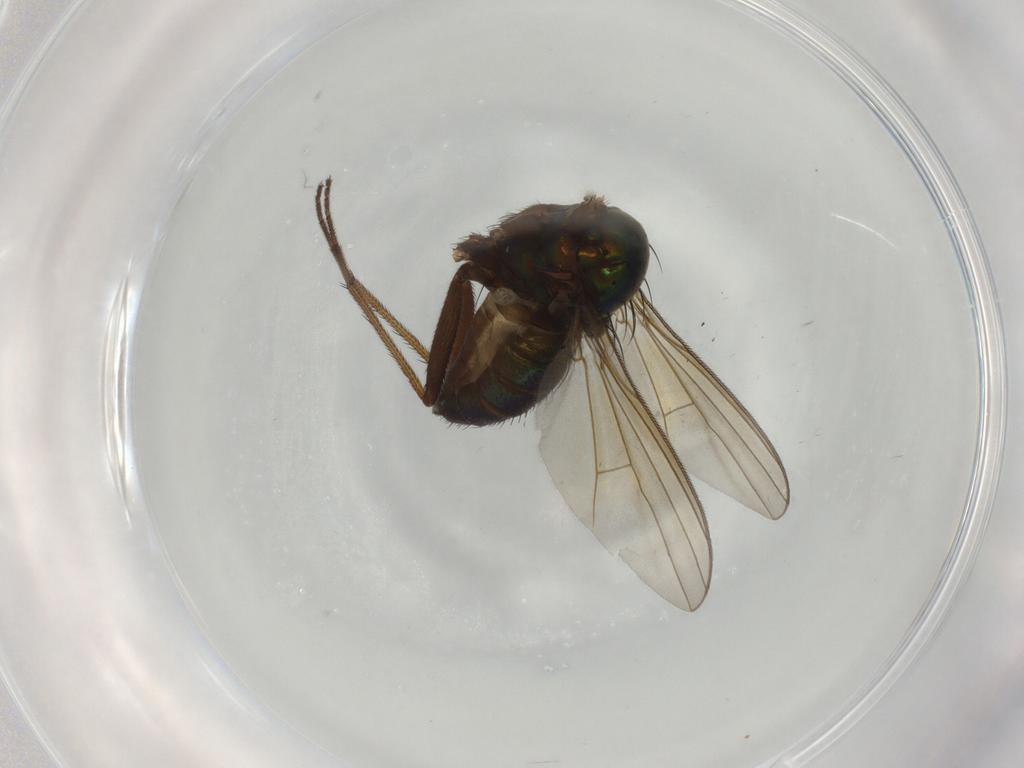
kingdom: Animalia
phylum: Arthropoda
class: Insecta
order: Diptera
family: Dolichopodidae
